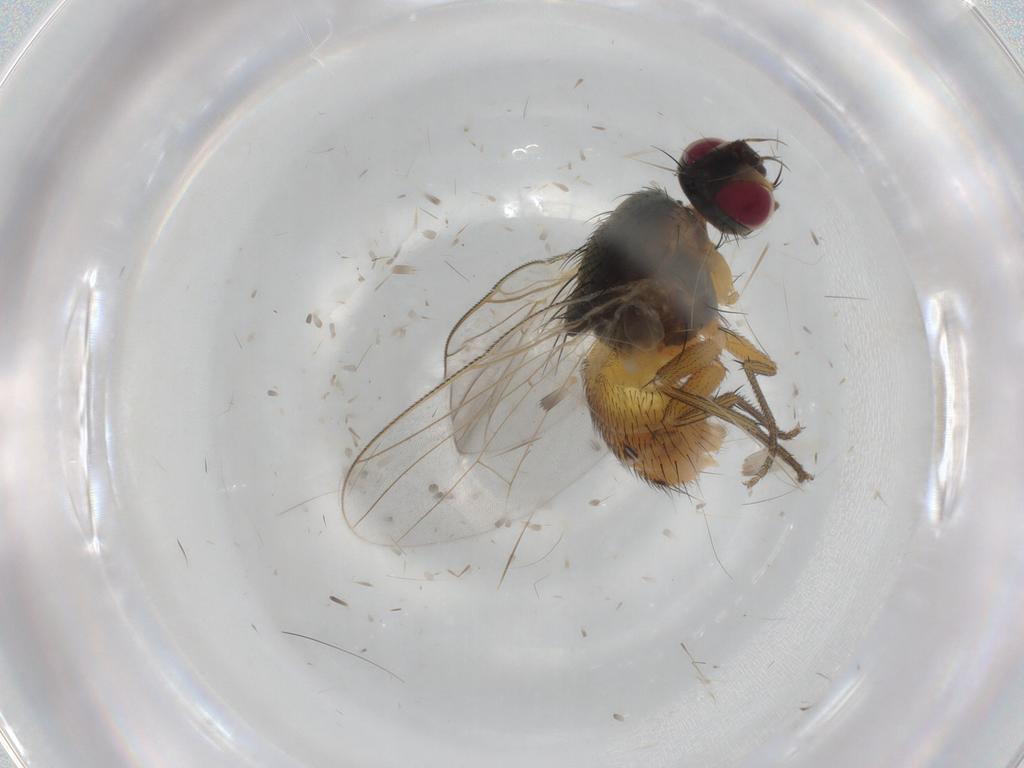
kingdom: Animalia
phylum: Arthropoda
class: Insecta
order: Diptera
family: Muscidae
